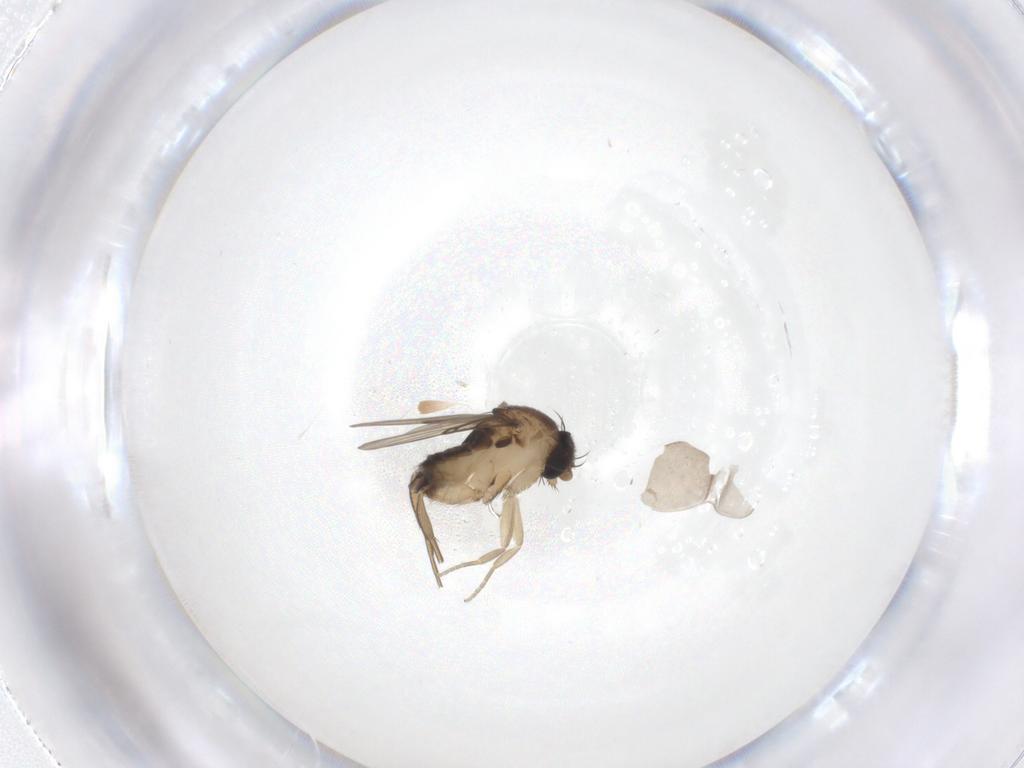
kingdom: Animalia
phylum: Arthropoda
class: Insecta
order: Diptera
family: Phoridae
